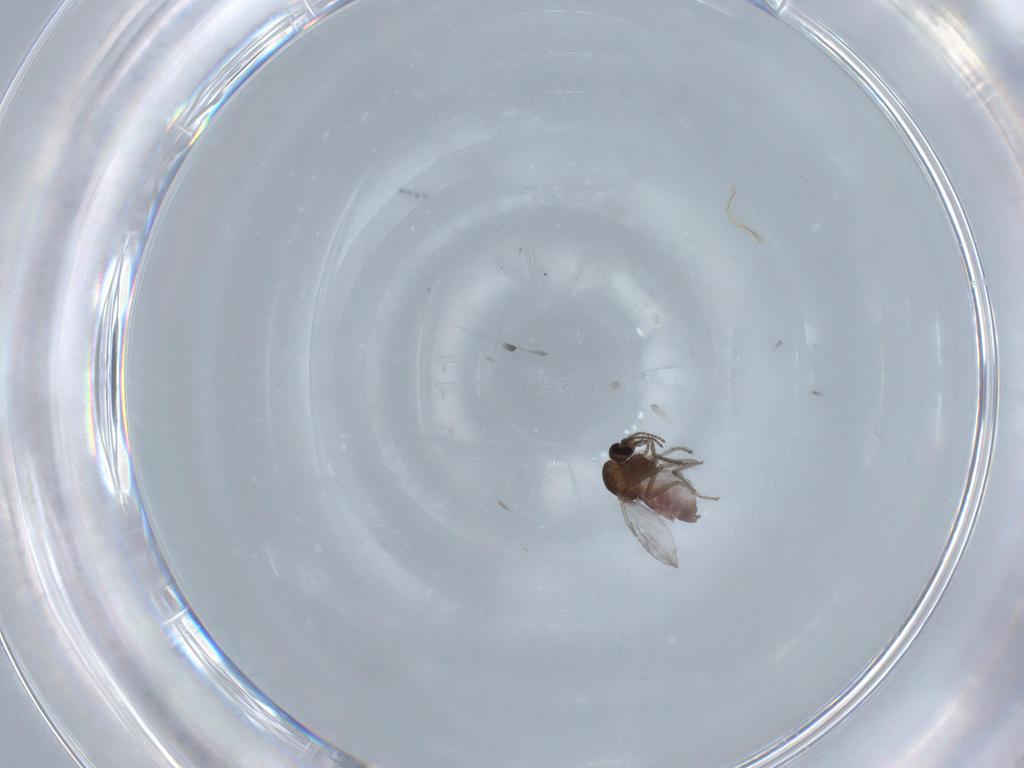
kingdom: Animalia
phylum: Arthropoda
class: Insecta
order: Diptera
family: Ceratopogonidae
